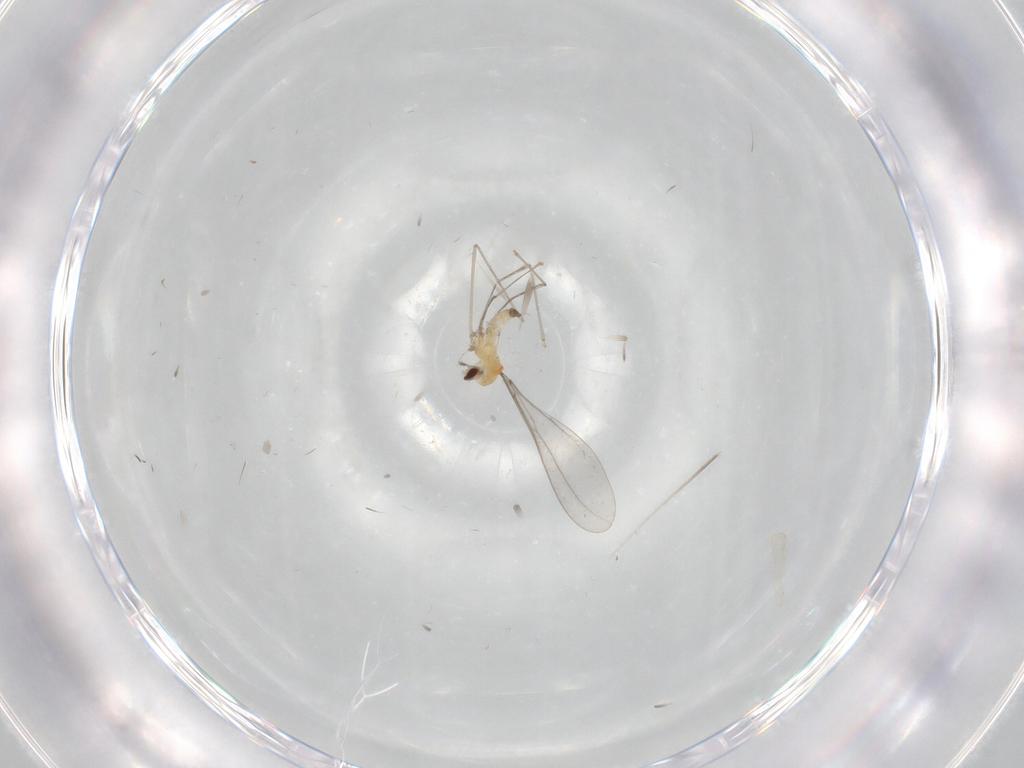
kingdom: Animalia
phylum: Arthropoda
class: Insecta
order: Diptera
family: Cecidomyiidae
